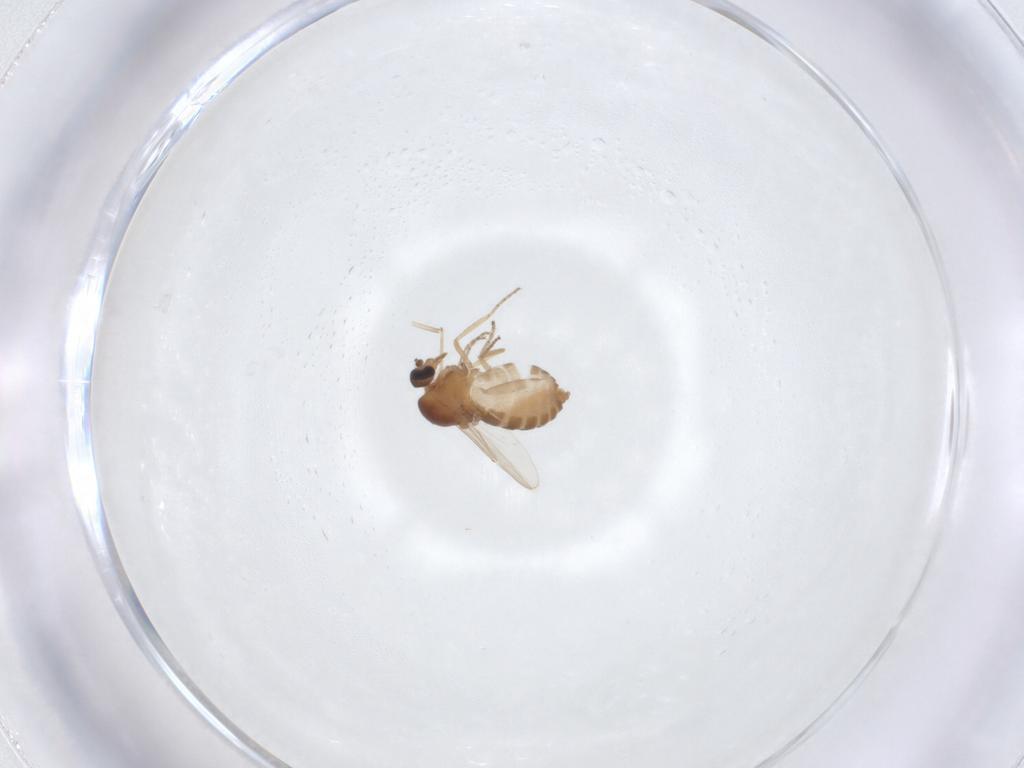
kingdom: Animalia
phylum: Arthropoda
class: Insecta
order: Diptera
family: Ceratopogonidae
